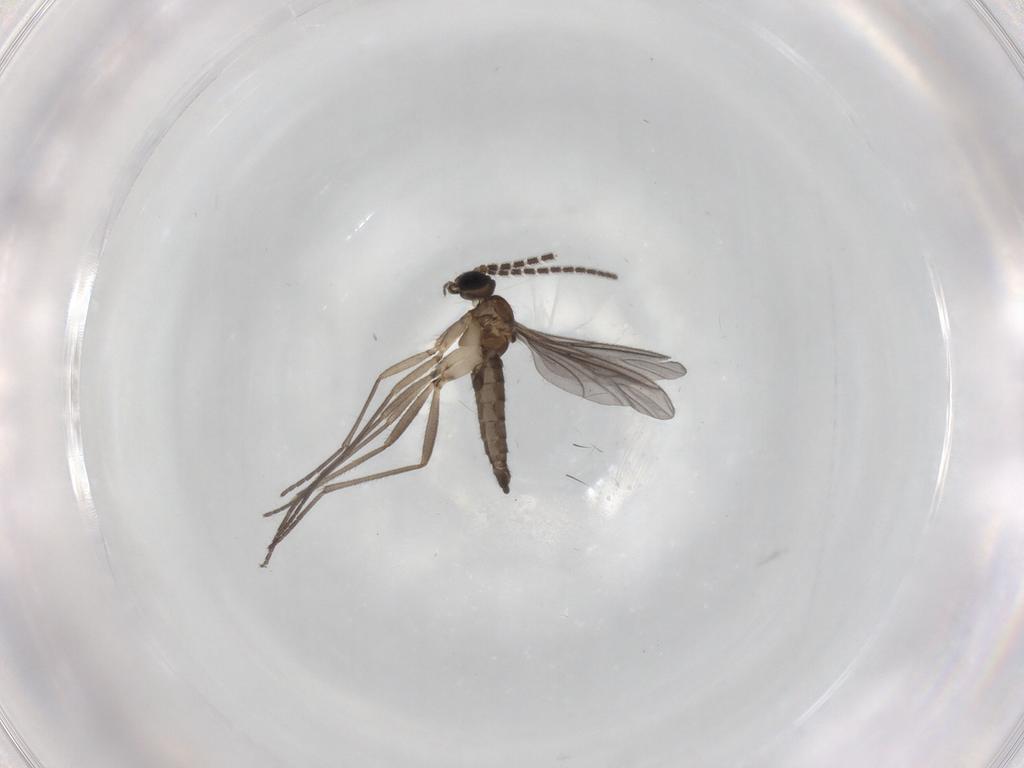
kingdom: Animalia
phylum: Arthropoda
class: Insecta
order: Diptera
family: Sciaridae
